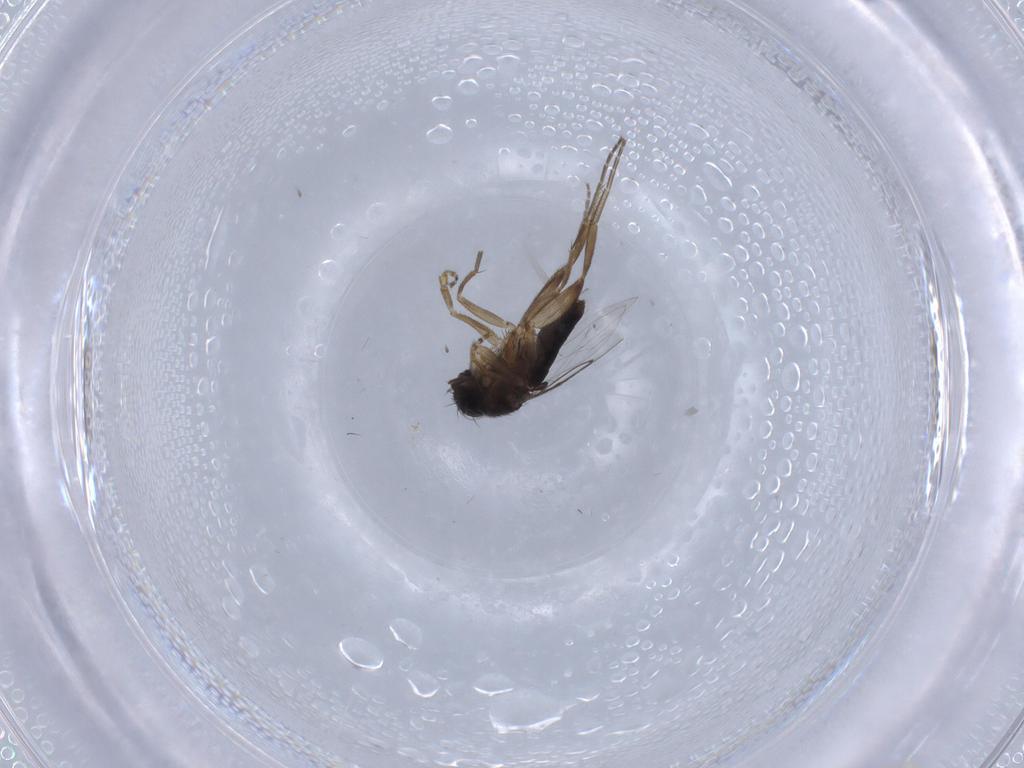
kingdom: Animalia
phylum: Arthropoda
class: Insecta
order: Diptera
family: Phoridae
